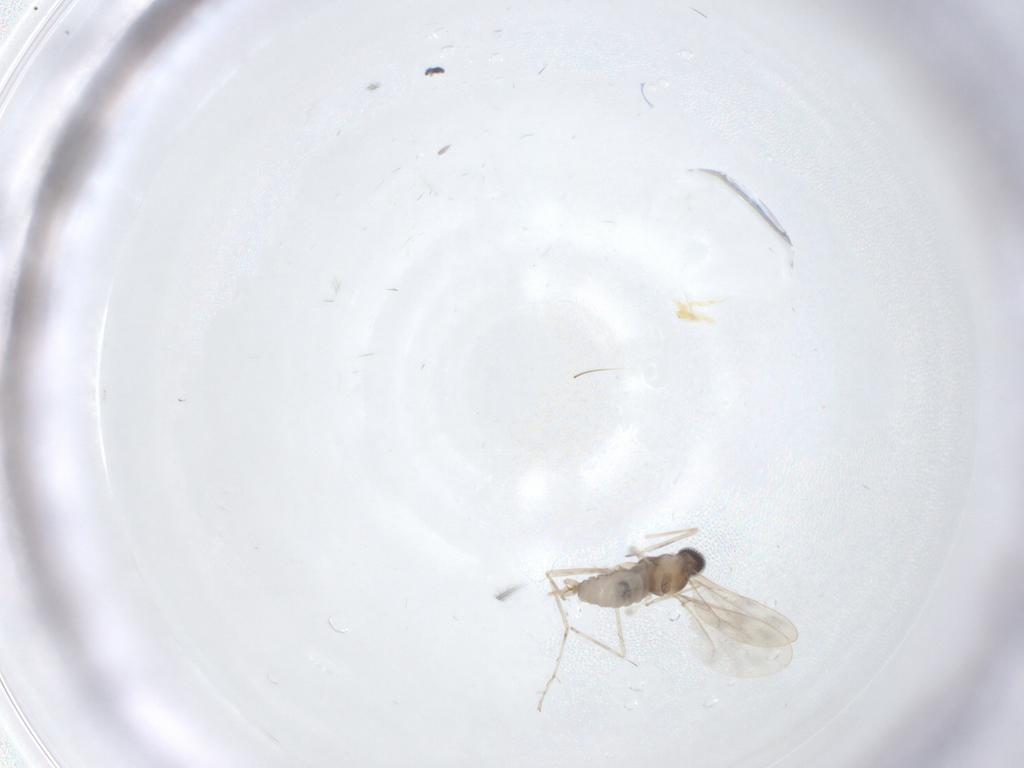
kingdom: Animalia
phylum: Arthropoda
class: Insecta
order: Diptera
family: Cecidomyiidae
